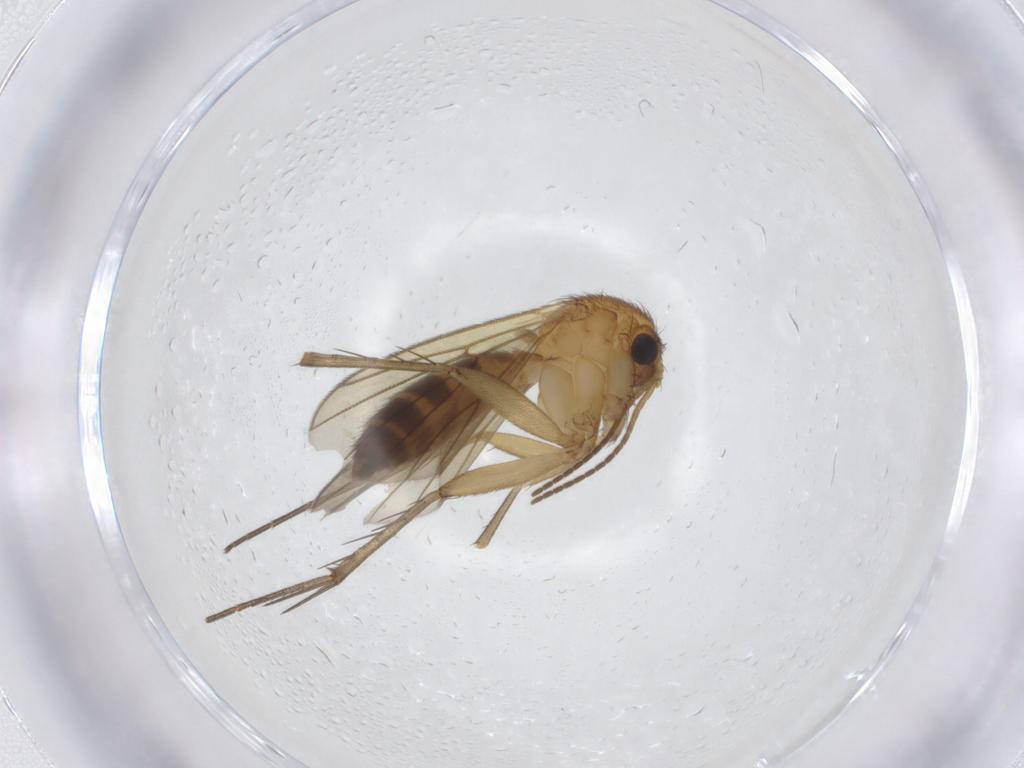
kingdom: Animalia
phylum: Arthropoda
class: Insecta
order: Diptera
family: Mycetophilidae
